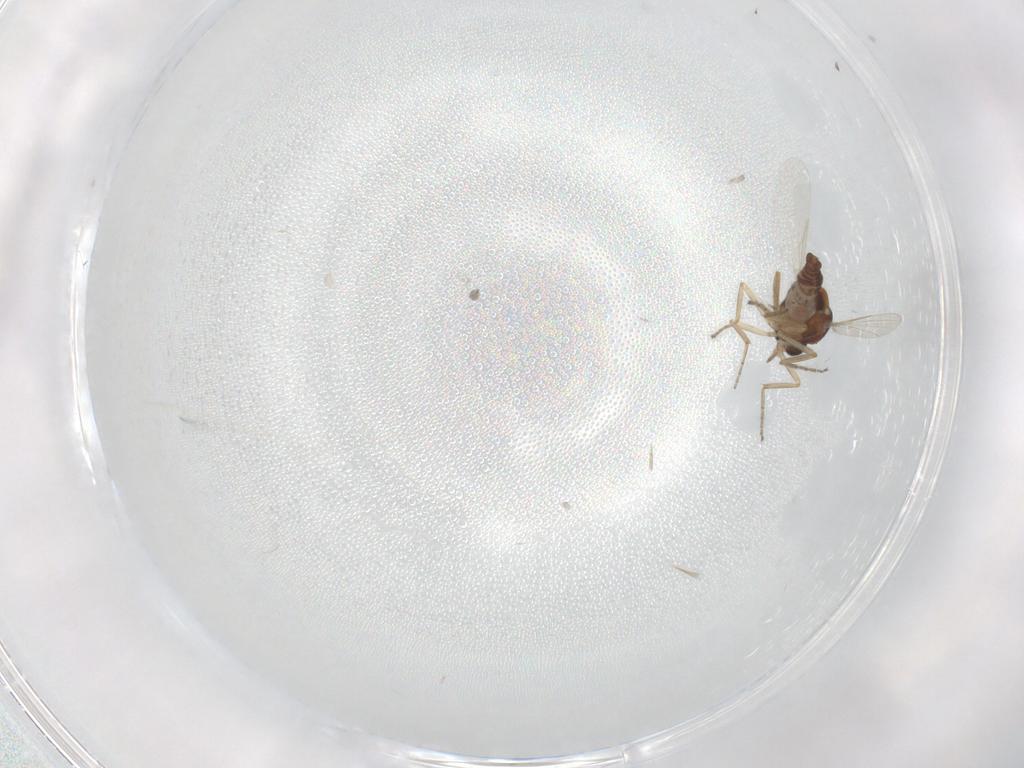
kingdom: Animalia
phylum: Arthropoda
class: Insecta
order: Diptera
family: Ceratopogonidae
